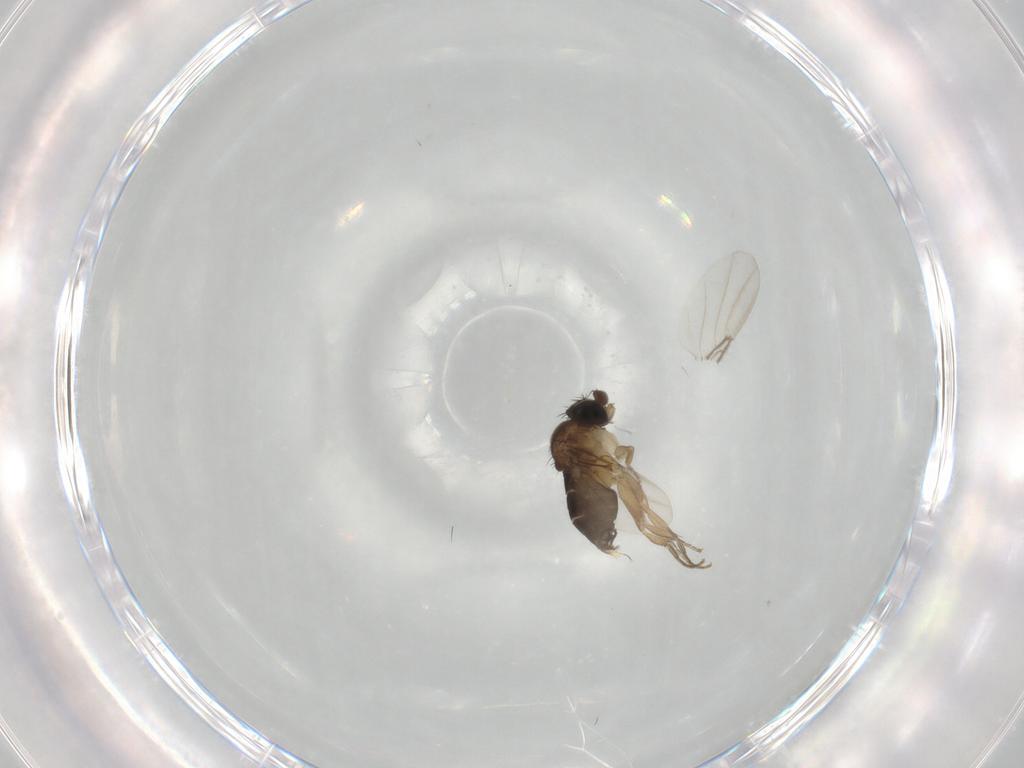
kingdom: Animalia
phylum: Arthropoda
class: Insecta
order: Diptera
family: Phoridae
